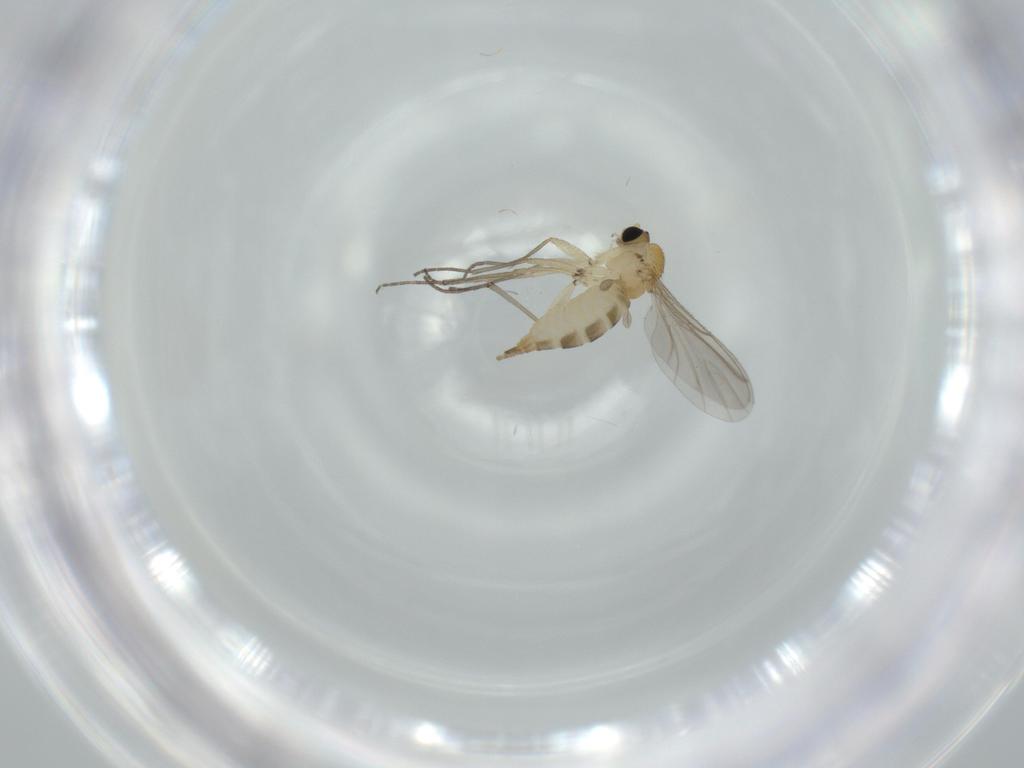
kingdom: Animalia
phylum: Arthropoda
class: Insecta
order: Diptera
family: Sciaridae
